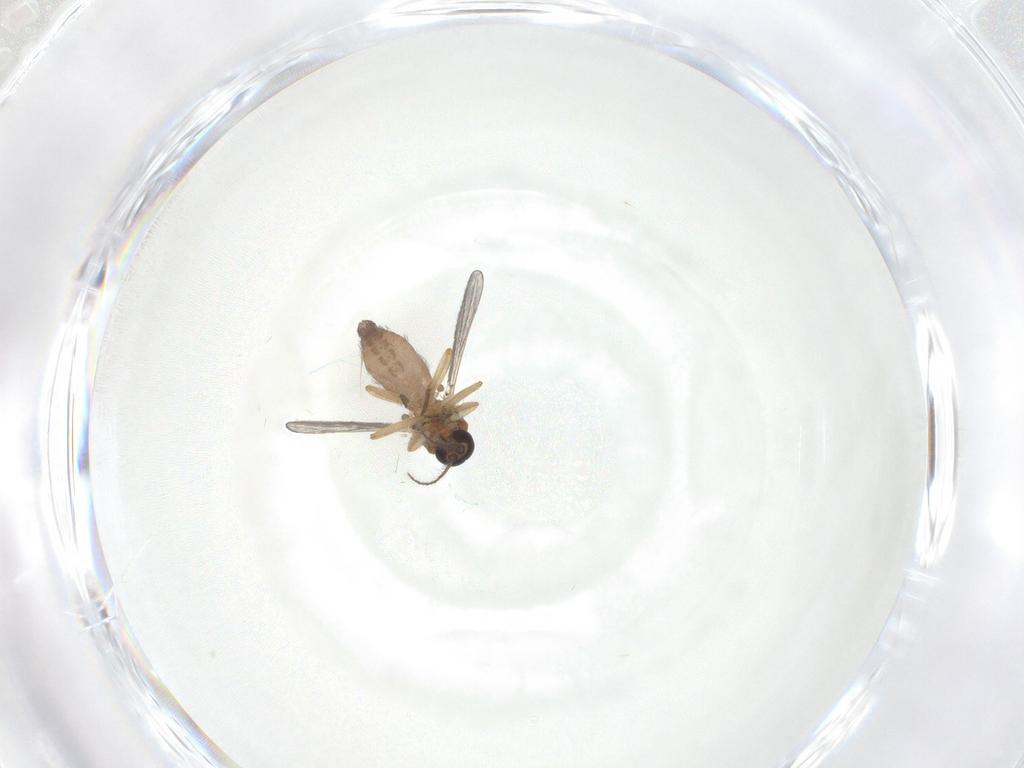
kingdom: Animalia
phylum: Arthropoda
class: Insecta
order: Diptera
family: Ceratopogonidae
